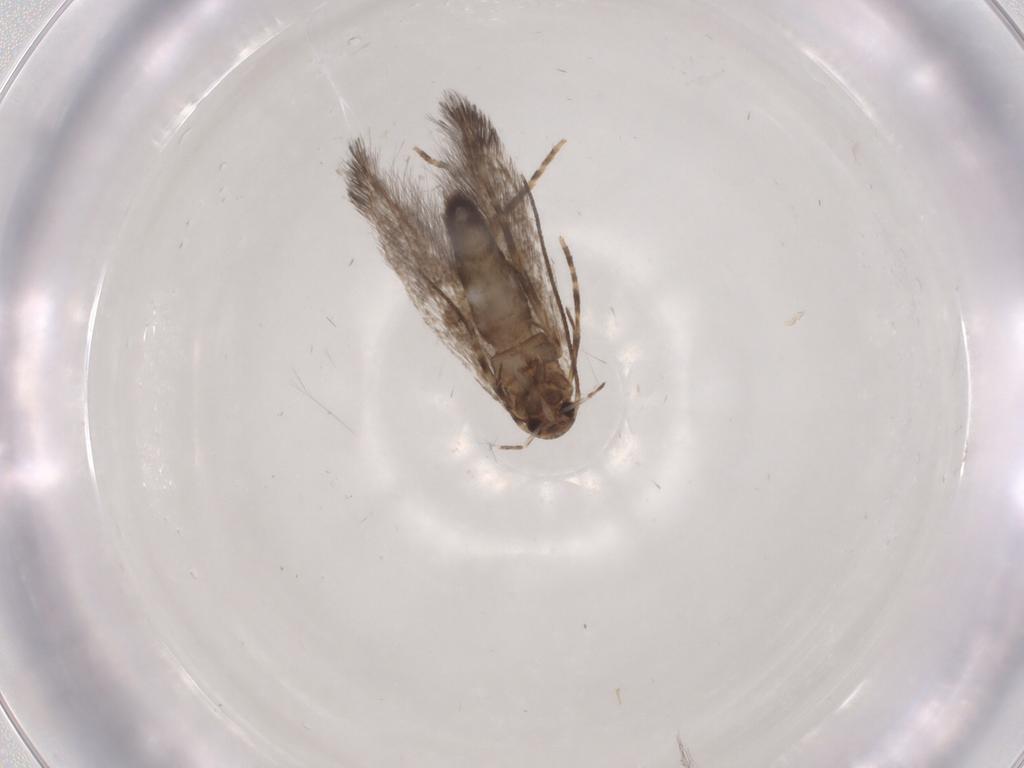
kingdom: Animalia
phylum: Arthropoda
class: Insecta
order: Lepidoptera
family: Elachistidae
